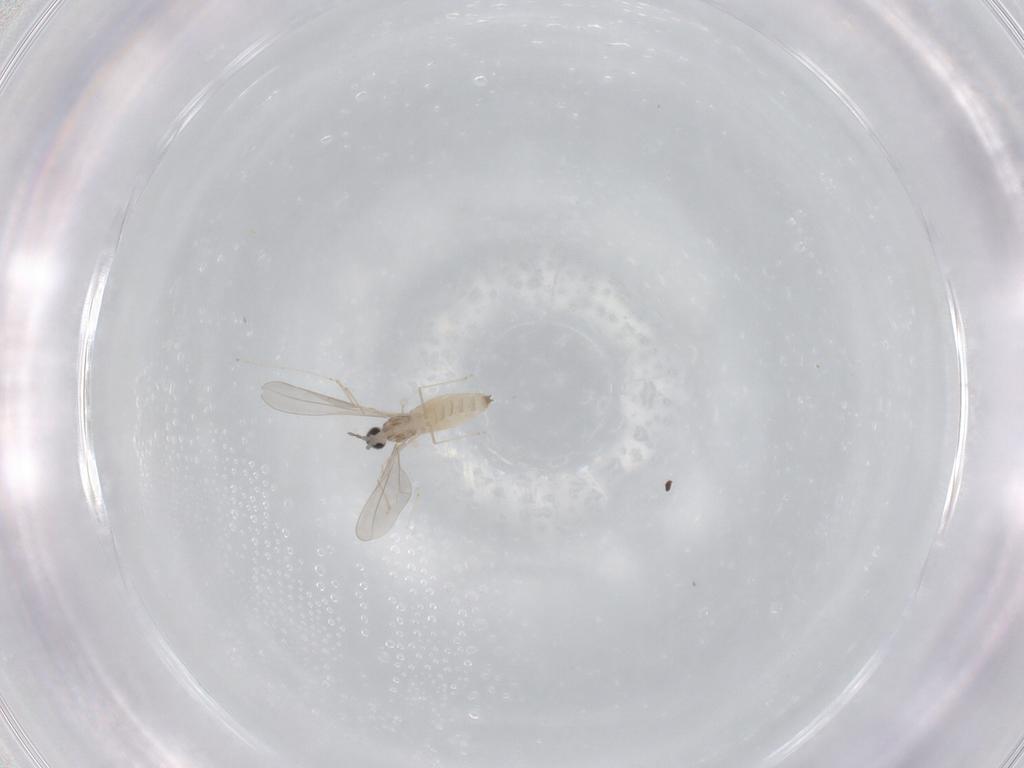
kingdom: Animalia
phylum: Arthropoda
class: Insecta
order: Diptera
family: Cecidomyiidae
